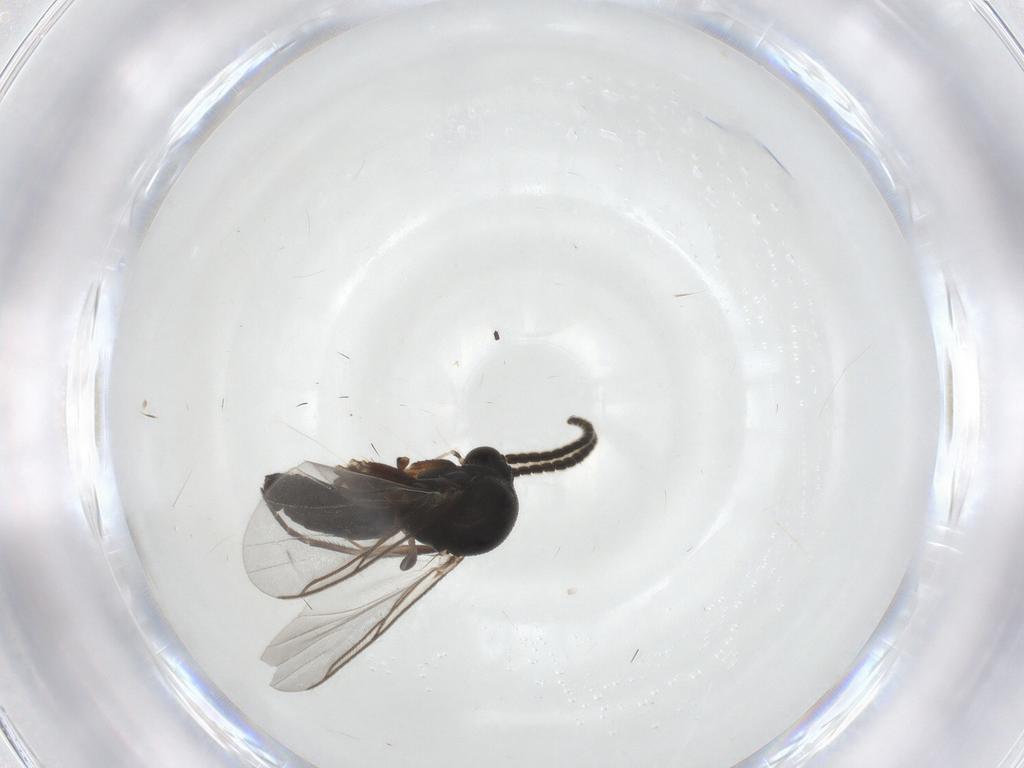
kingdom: Animalia
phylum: Arthropoda
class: Insecta
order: Diptera
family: Mycetophilidae
